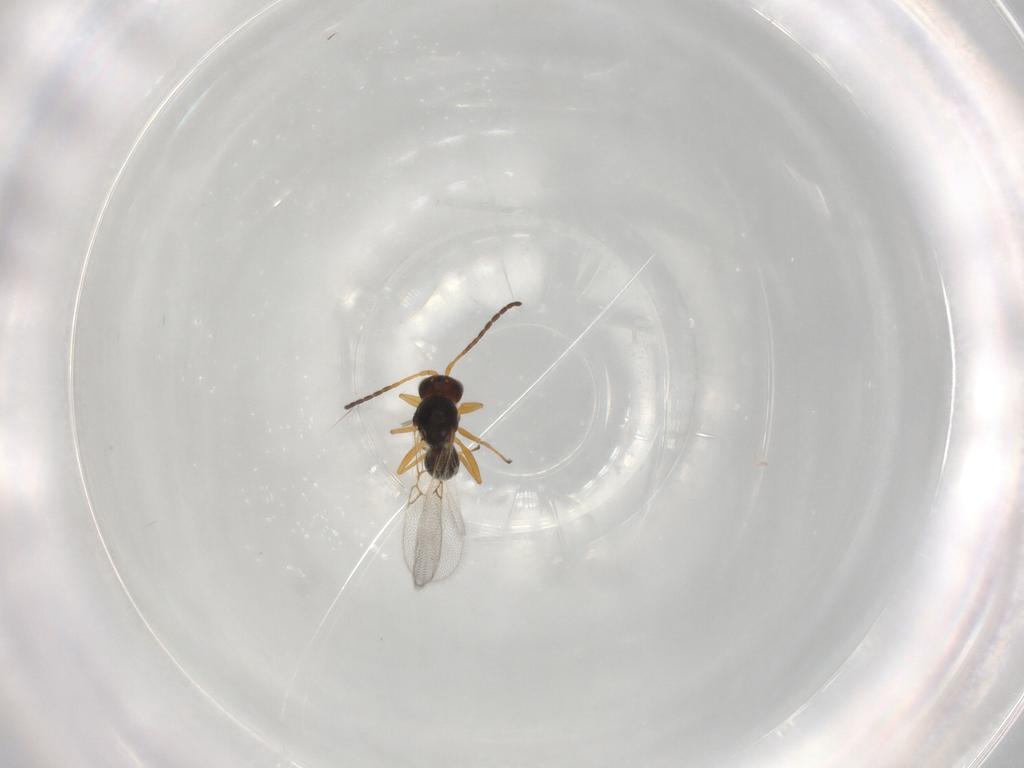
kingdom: Animalia
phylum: Arthropoda
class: Insecta
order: Hymenoptera
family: Figitidae
